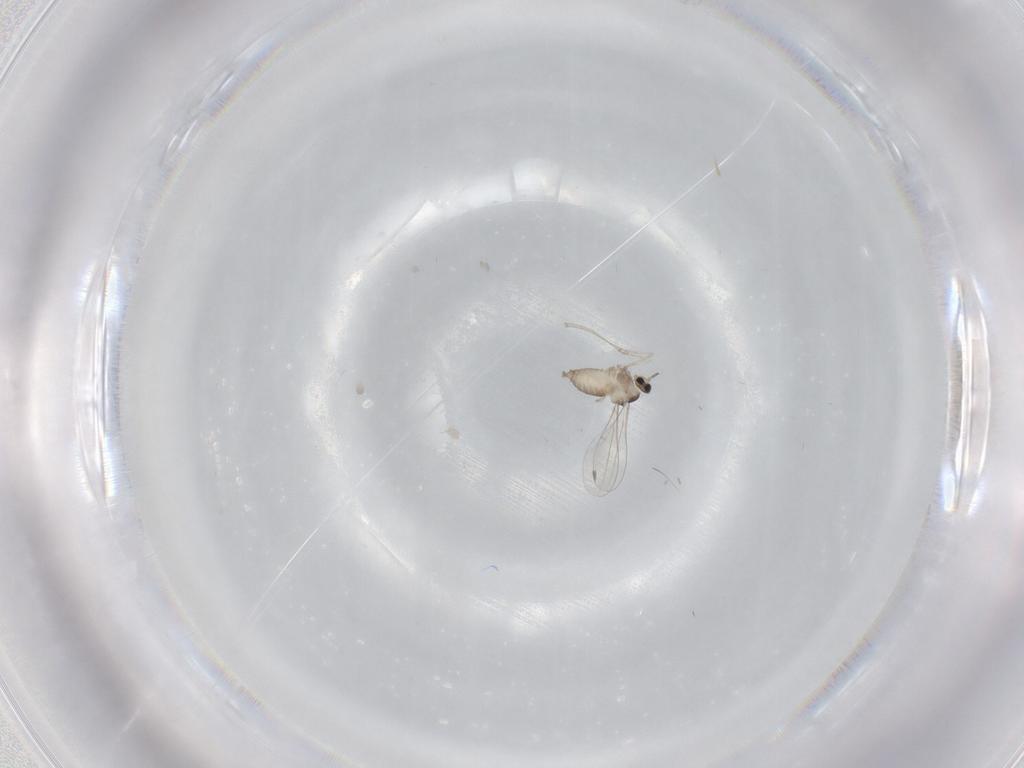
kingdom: Animalia
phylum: Arthropoda
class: Insecta
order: Diptera
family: Cecidomyiidae
